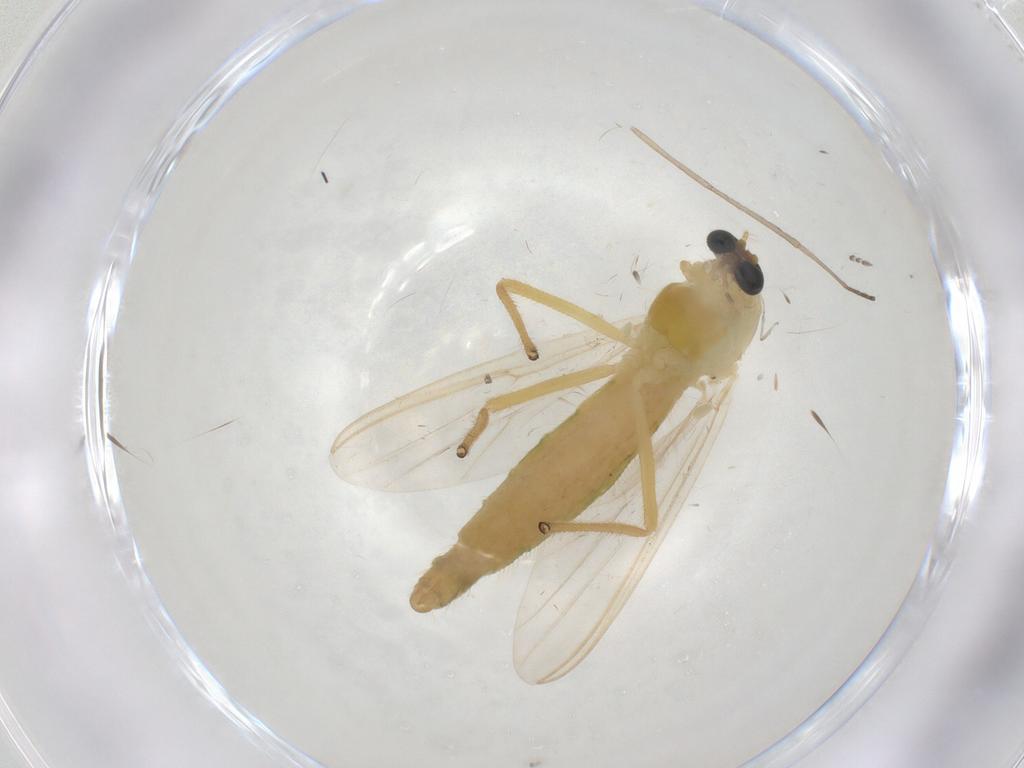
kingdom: Animalia
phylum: Arthropoda
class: Insecta
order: Diptera
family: Chironomidae
